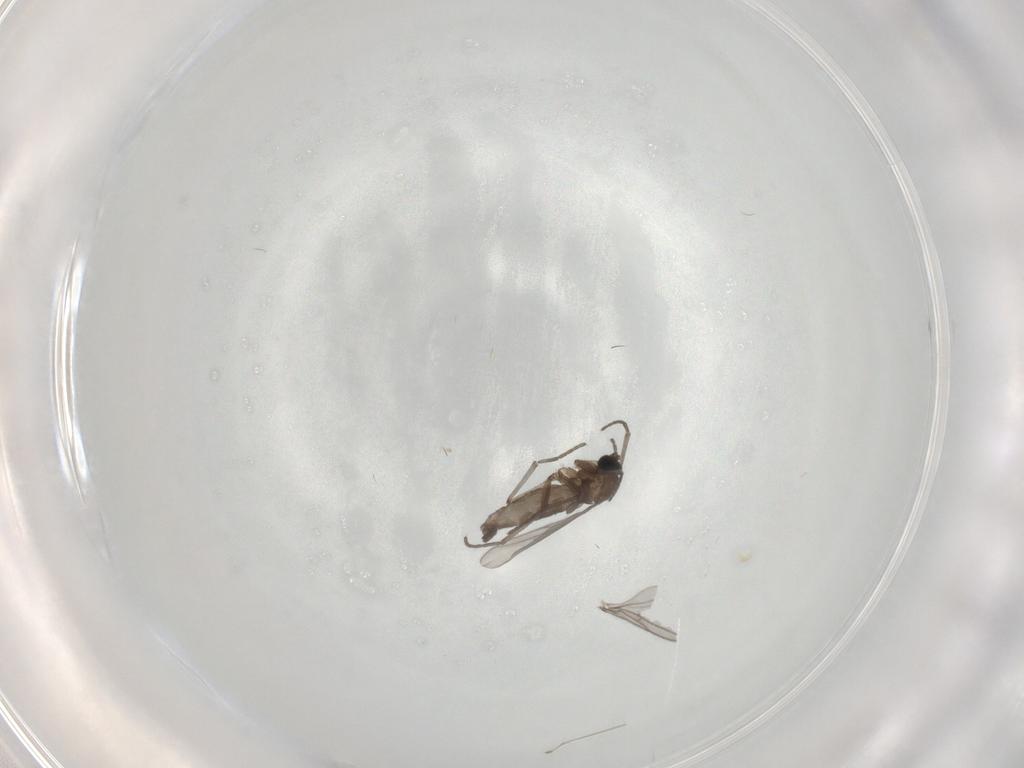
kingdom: Animalia
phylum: Arthropoda
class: Insecta
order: Diptera
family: Sciaridae
